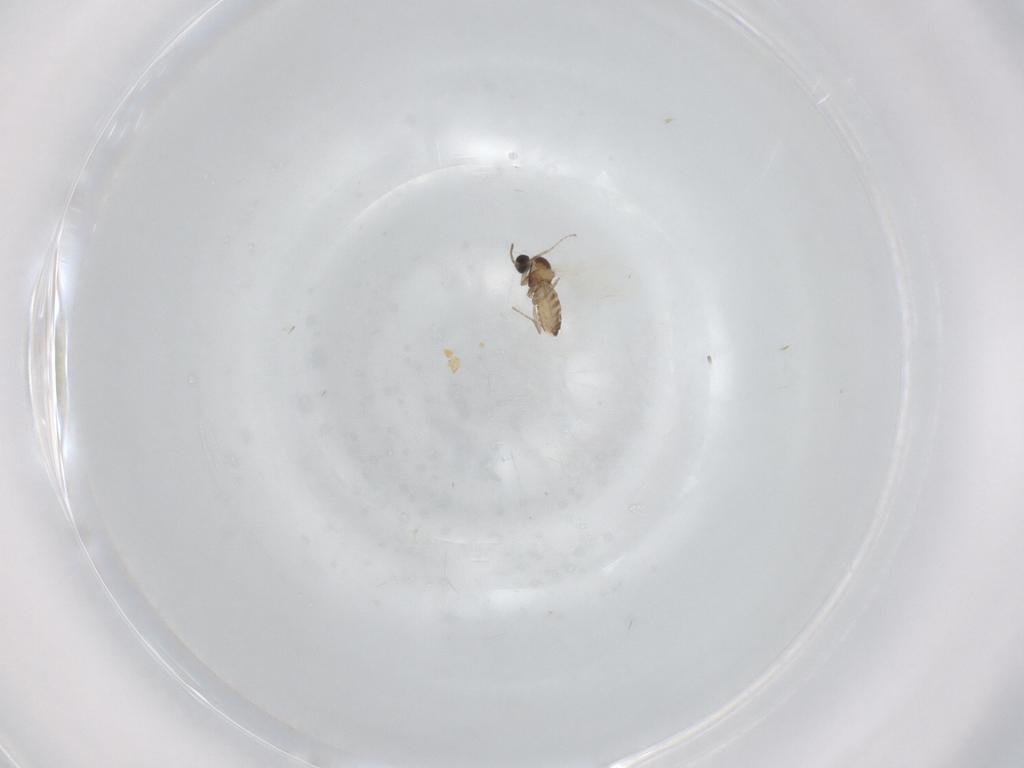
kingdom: Animalia
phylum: Arthropoda
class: Insecta
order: Diptera
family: Cecidomyiidae
